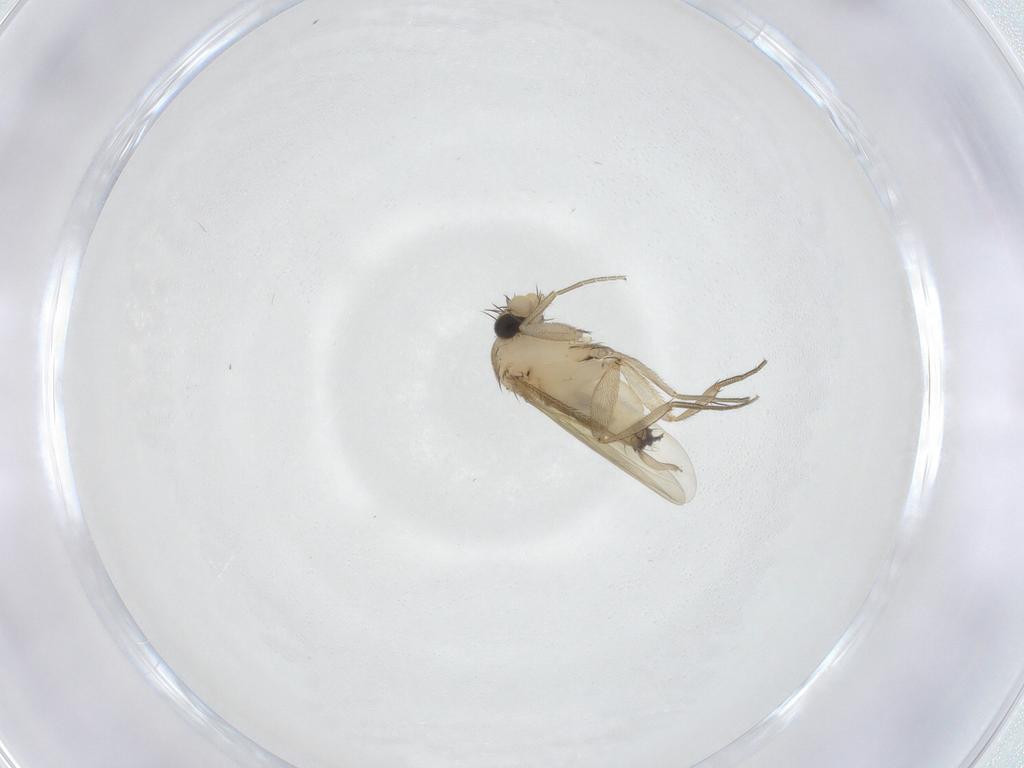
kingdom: Animalia
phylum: Arthropoda
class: Insecta
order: Diptera
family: Phoridae
